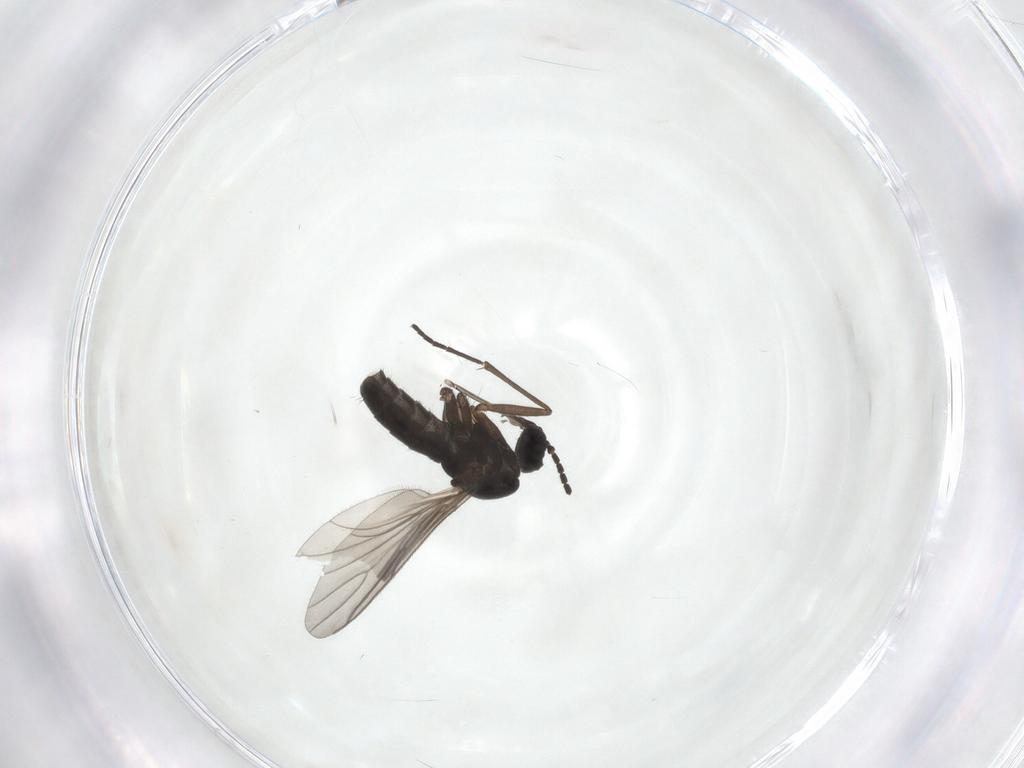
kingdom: Animalia
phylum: Arthropoda
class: Insecta
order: Diptera
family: Sciaridae
